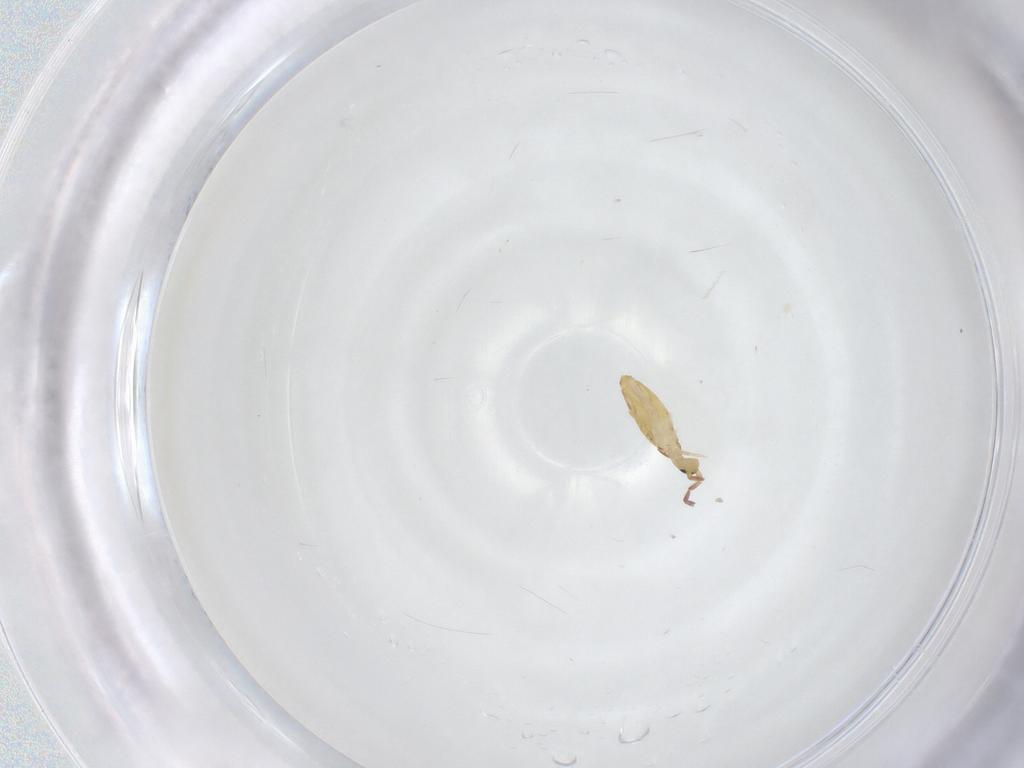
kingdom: Animalia
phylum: Arthropoda
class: Collembola
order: Entomobryomorpha
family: Entomobryidae
